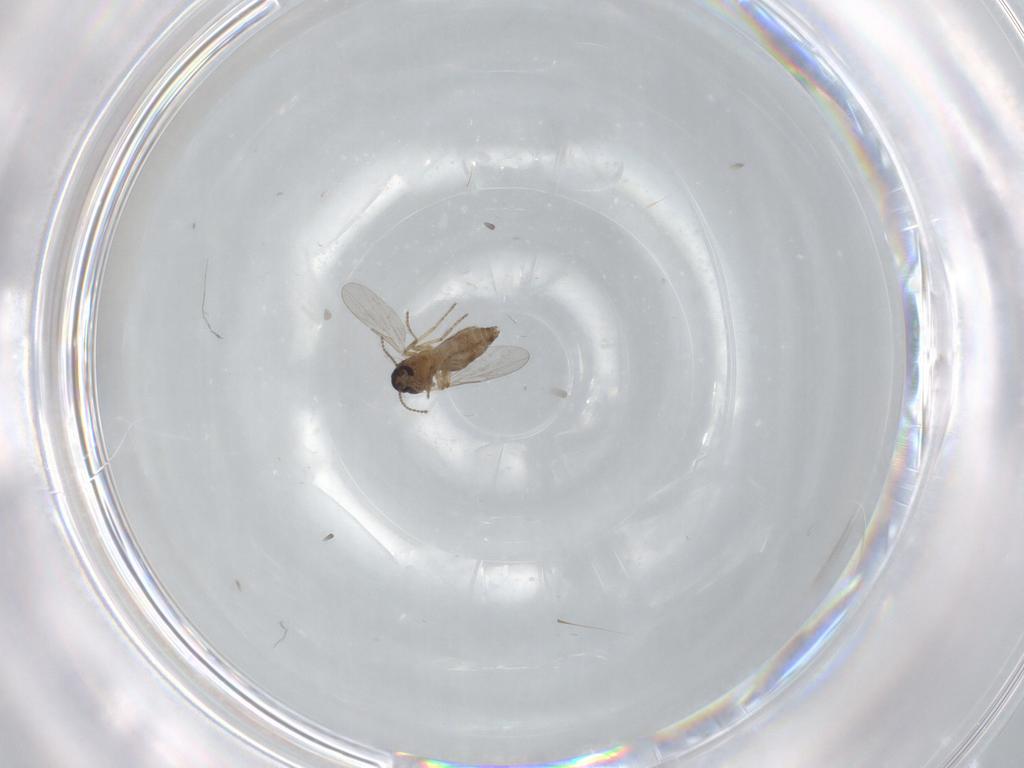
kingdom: Animalia
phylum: Arthropoda
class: Insecta
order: Diptera
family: Ceratopogonidae
